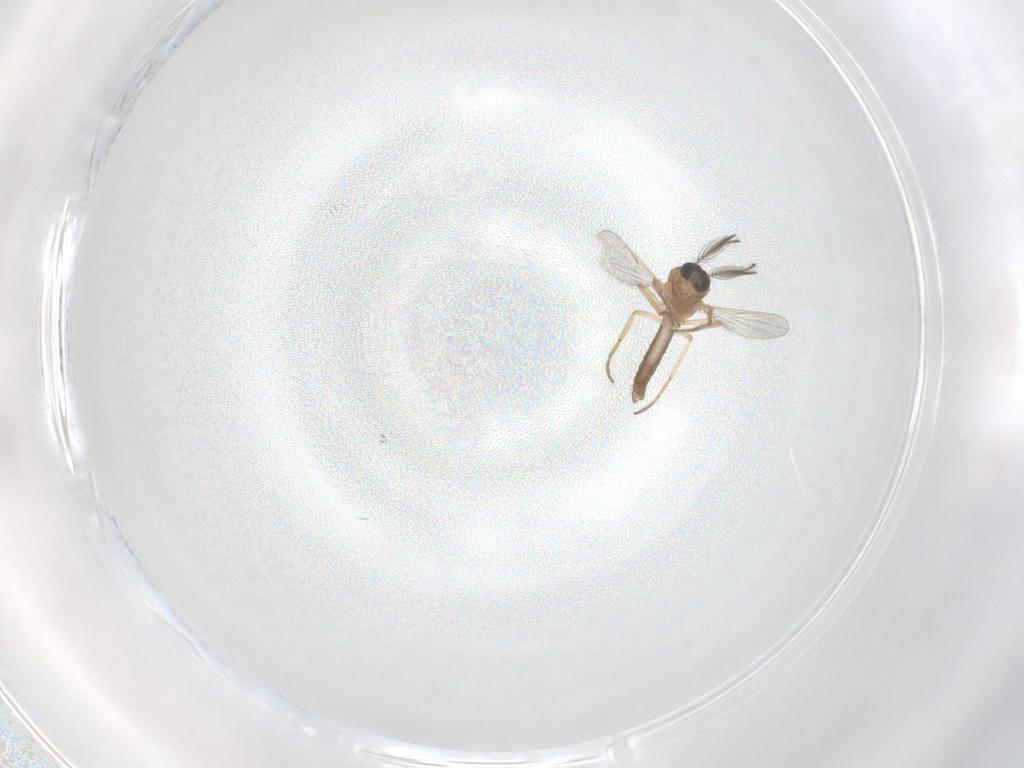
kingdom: Animalia
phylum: Arthropoda
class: Insecta
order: Diptera
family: Ceratopogonidae
